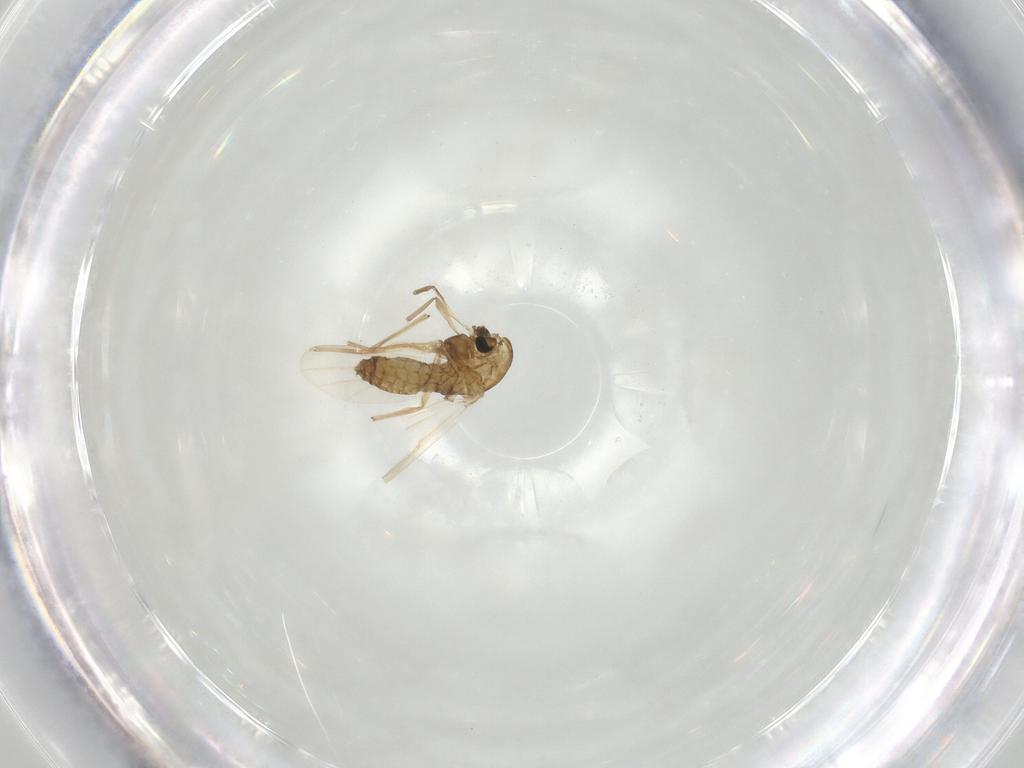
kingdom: Animalia
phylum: Arthropoda
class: Insecta
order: Diptera
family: Chironomidae
